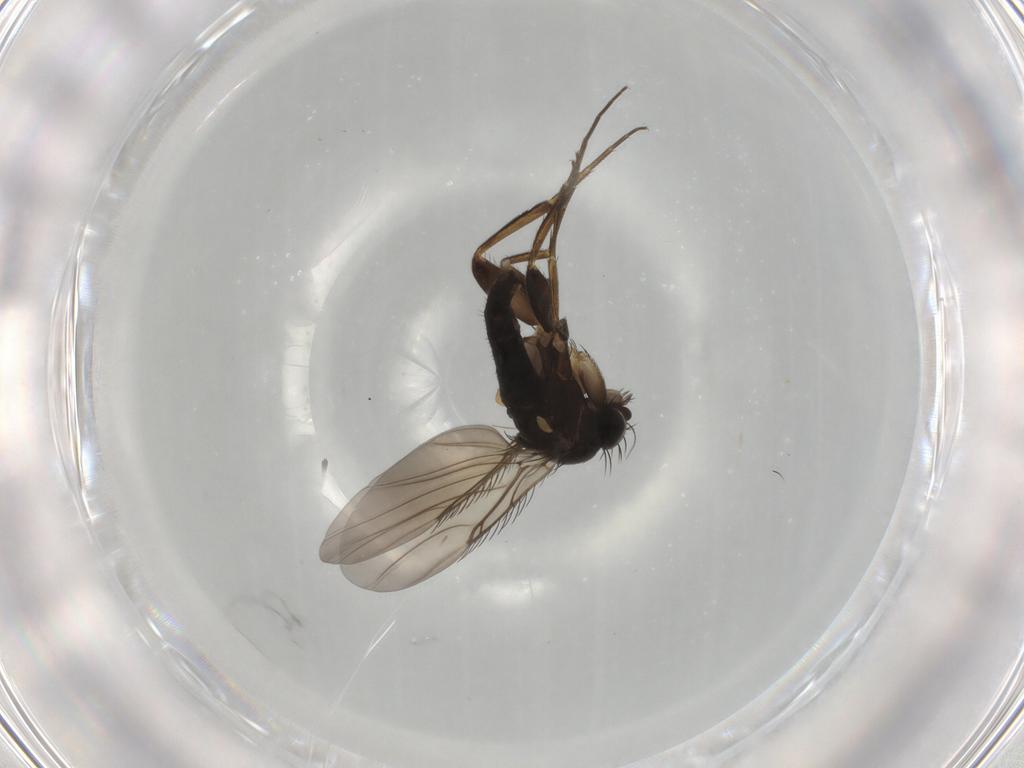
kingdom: Animalia
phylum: Arthropoda
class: Insecta
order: Diptera
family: Phoridae
